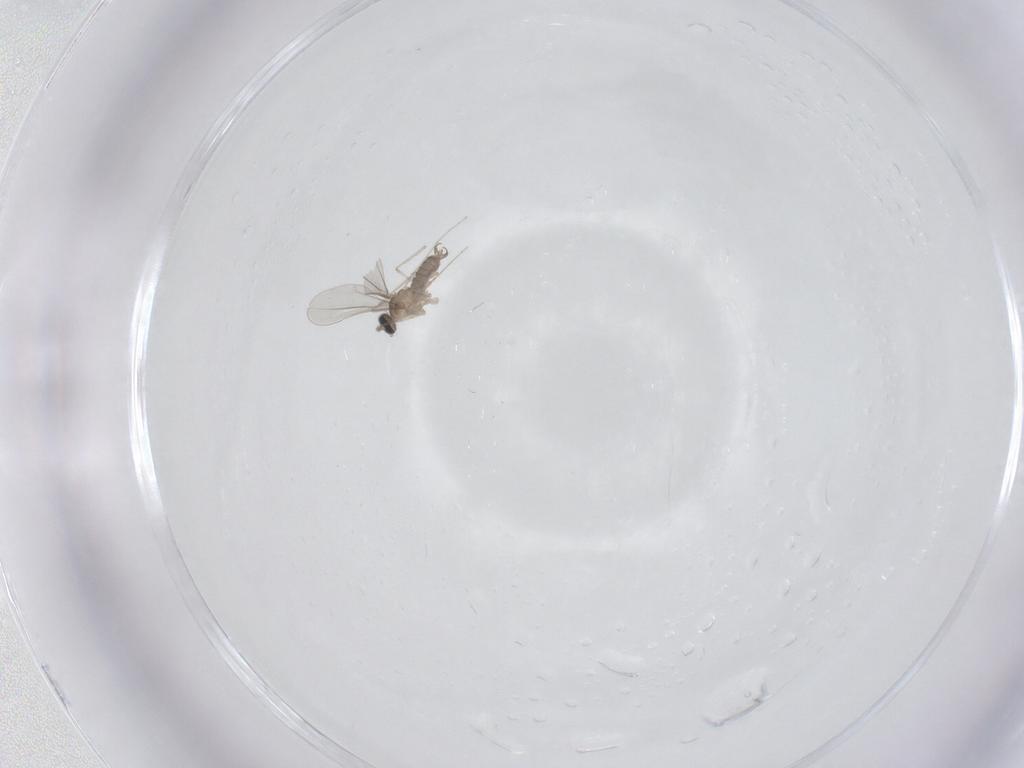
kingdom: Animalia
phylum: Arthropoda
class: Insecta
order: Diptera
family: Cecidomyiidae
